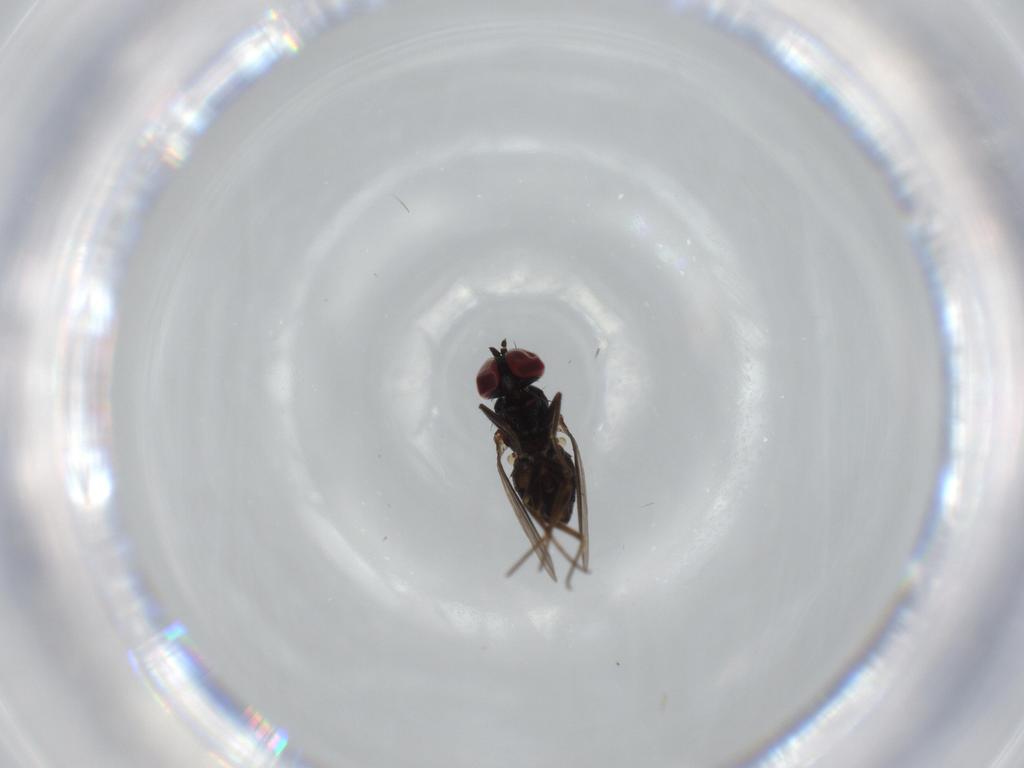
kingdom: Animalia
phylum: Arthropoda
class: Insecta
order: Diptera
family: Dolichopodidae
